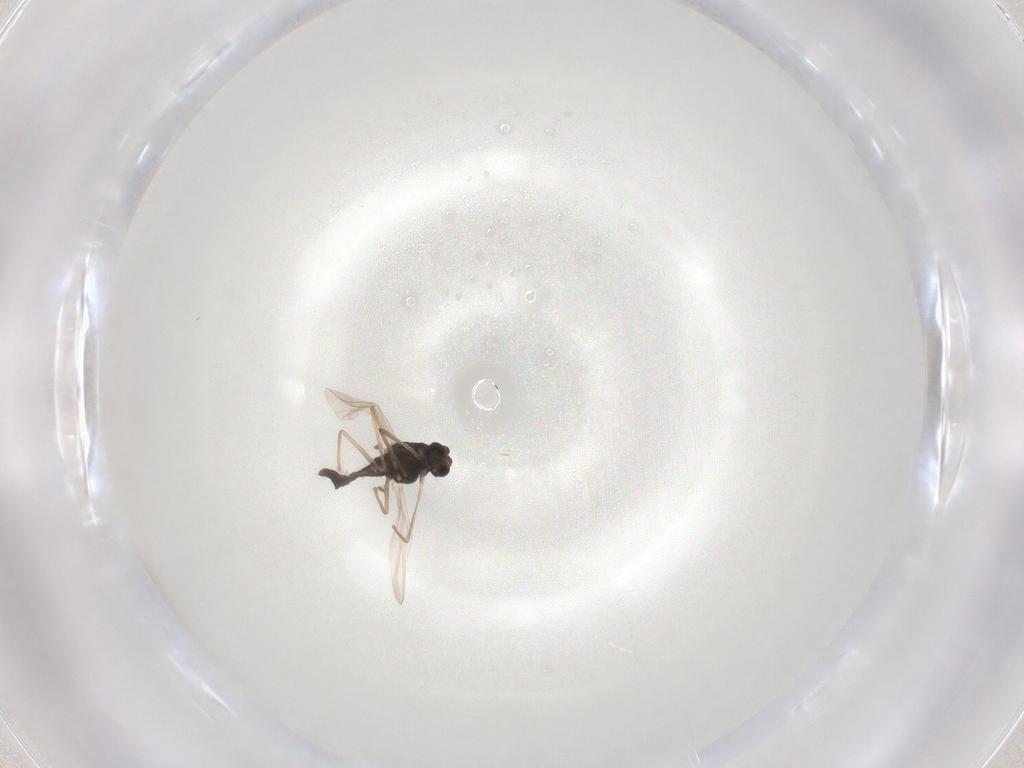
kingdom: Animalia
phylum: Arthropoda
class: Insecta
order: Diptera
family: Chironomidae
